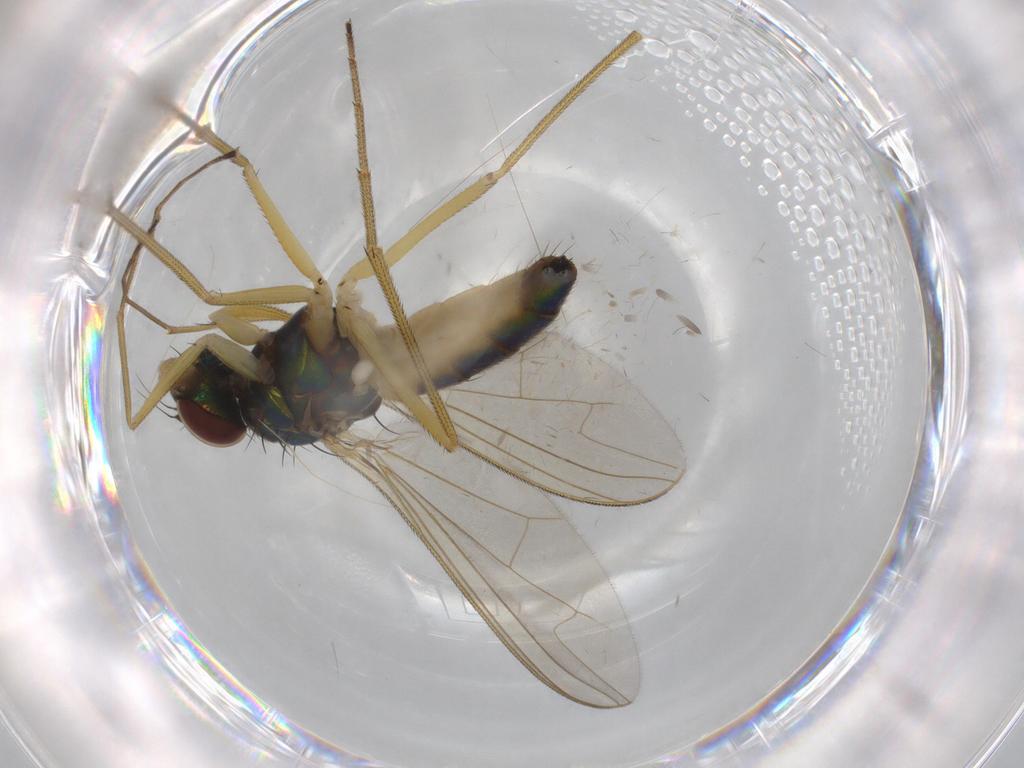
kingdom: Animalia
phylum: Arthropoda
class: Insecta
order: Diptera
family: Dolichopodidae
